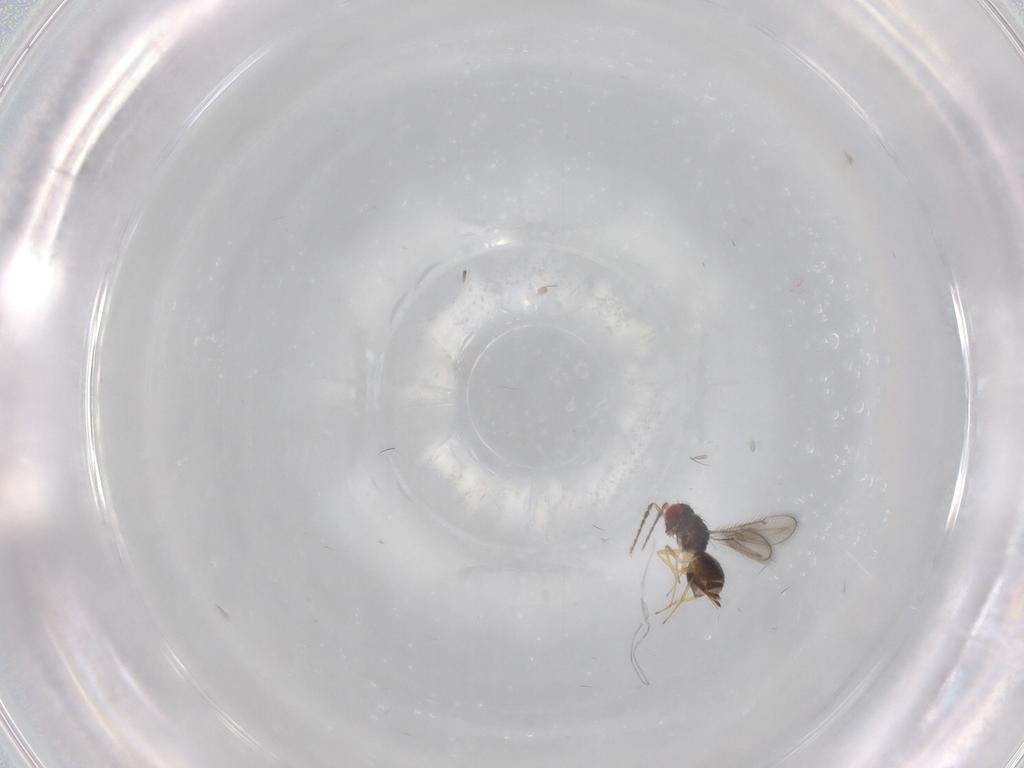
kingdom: Animalia
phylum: Arthropoda
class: Insecta
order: Hymenoptera
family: Eulophidae
